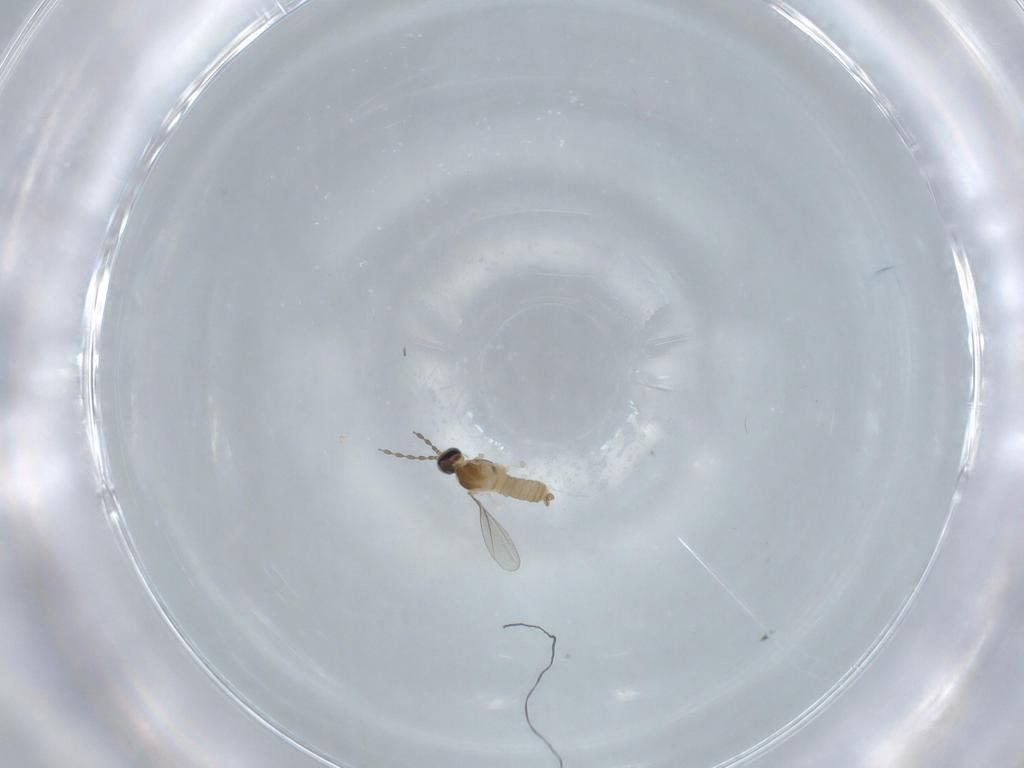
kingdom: Animalia
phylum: Arthropoda
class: Insecta
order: Diptera
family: Cecidomyiidae
